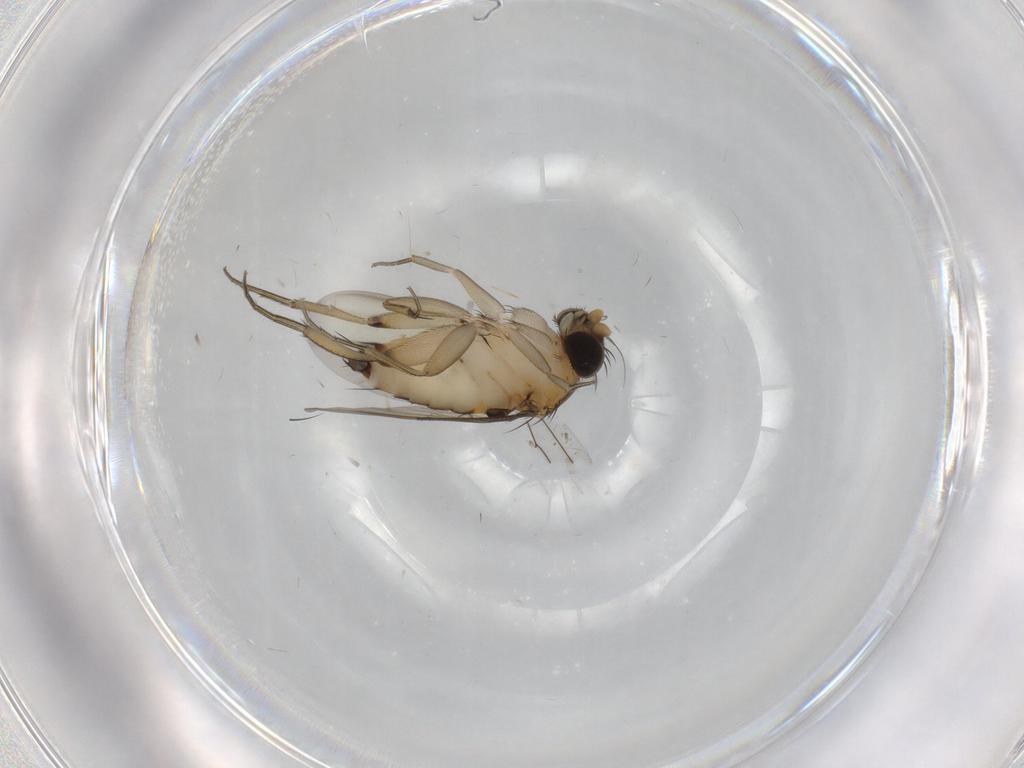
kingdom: Animalia
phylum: Arthropoda
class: Insecta
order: Diptera
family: Phoridae
